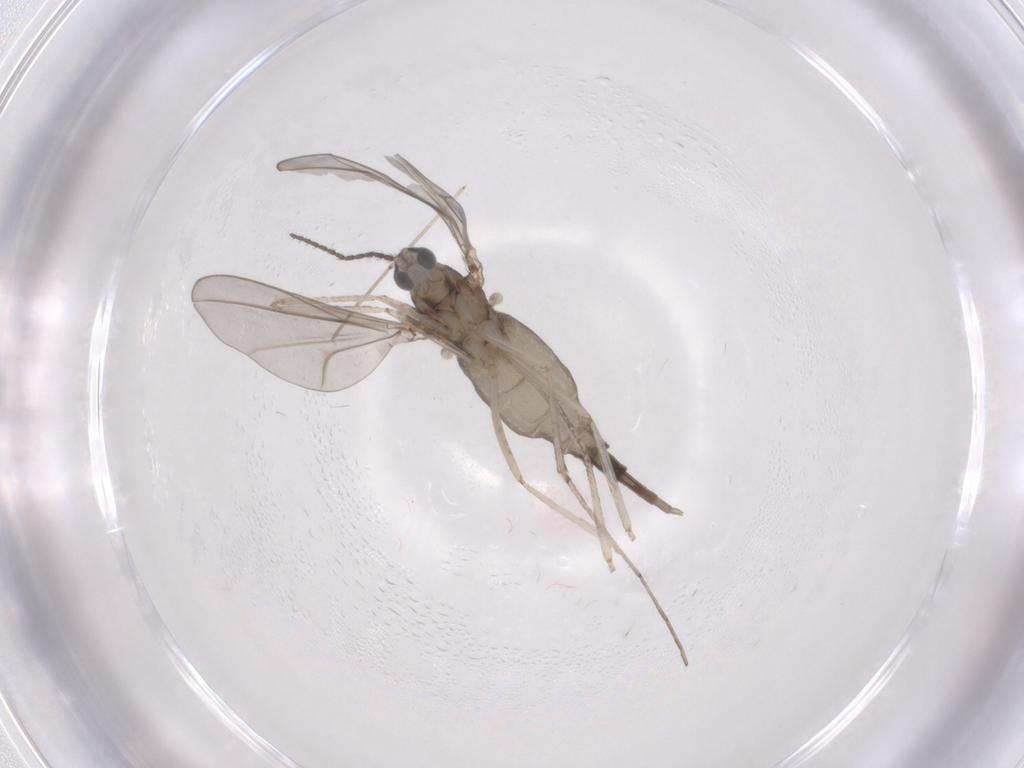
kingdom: Animalia
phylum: Arthropoda
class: Insecta
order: Diptera
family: Cecidomyiidae
